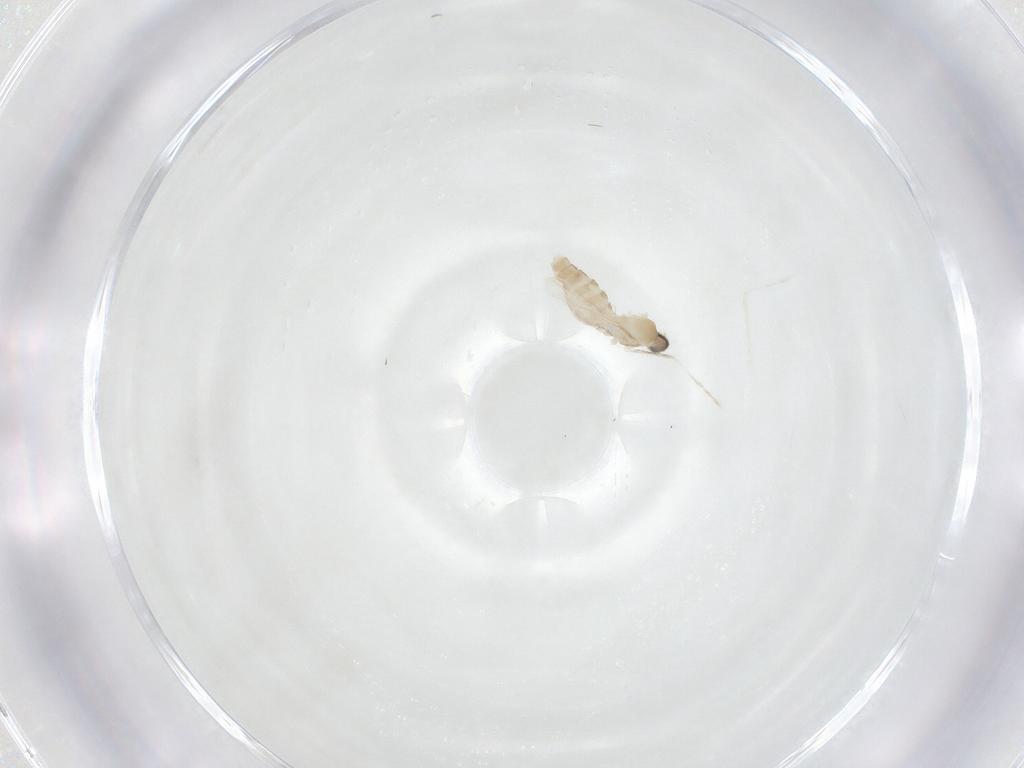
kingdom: Animalia
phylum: Arthropoda
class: Insecta
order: Diptera
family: Cecidomyiidae
